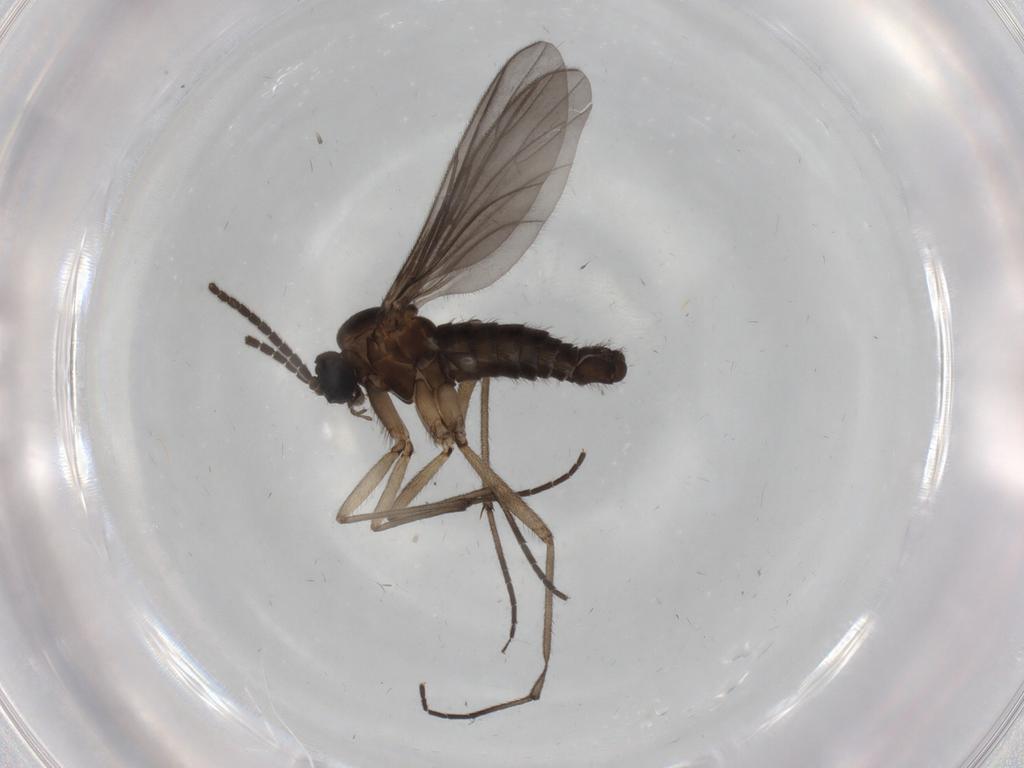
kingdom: Animalia
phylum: Arthropoda
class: Insecta
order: Diptera
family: Sciaridae
